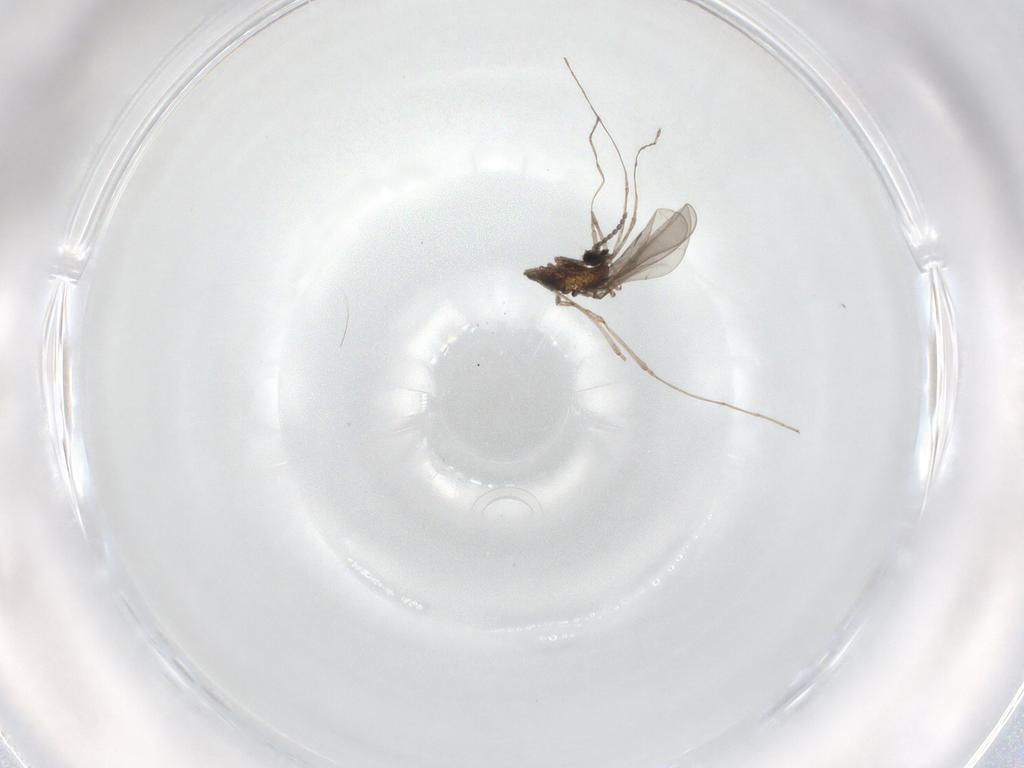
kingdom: Animalia
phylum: Arthropoda
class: Insecta
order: Diptera
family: Cecidomyiidae
